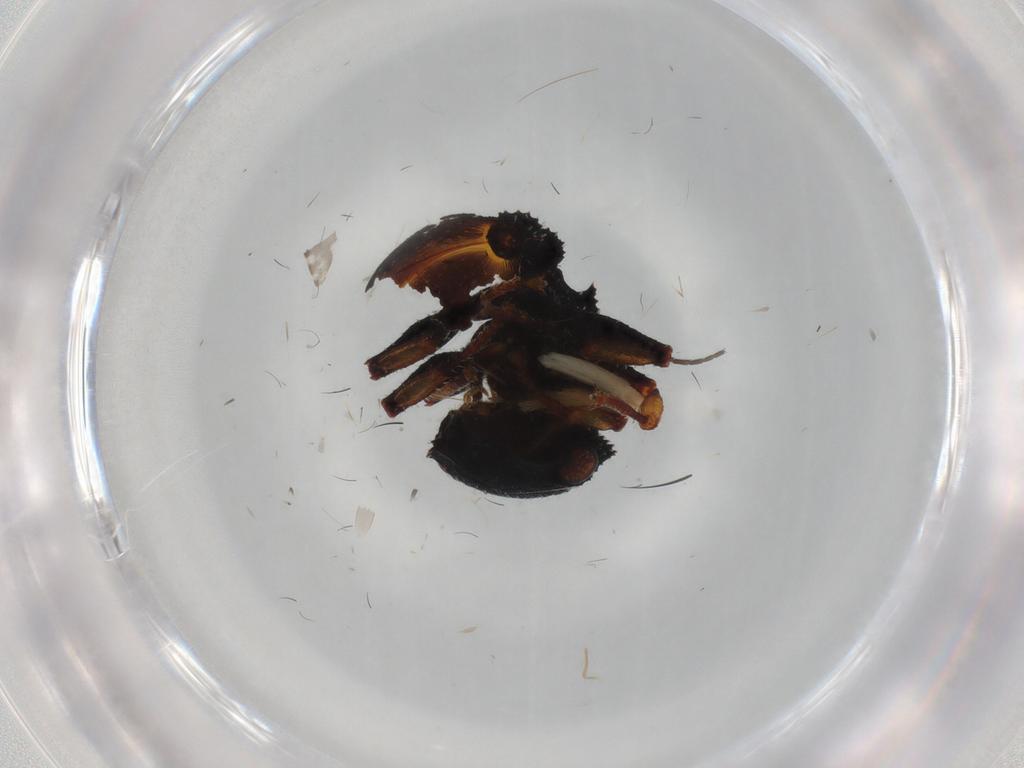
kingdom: Animalia
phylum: Arthropoda
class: Insecta
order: Hymenoptera
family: Formicidae
